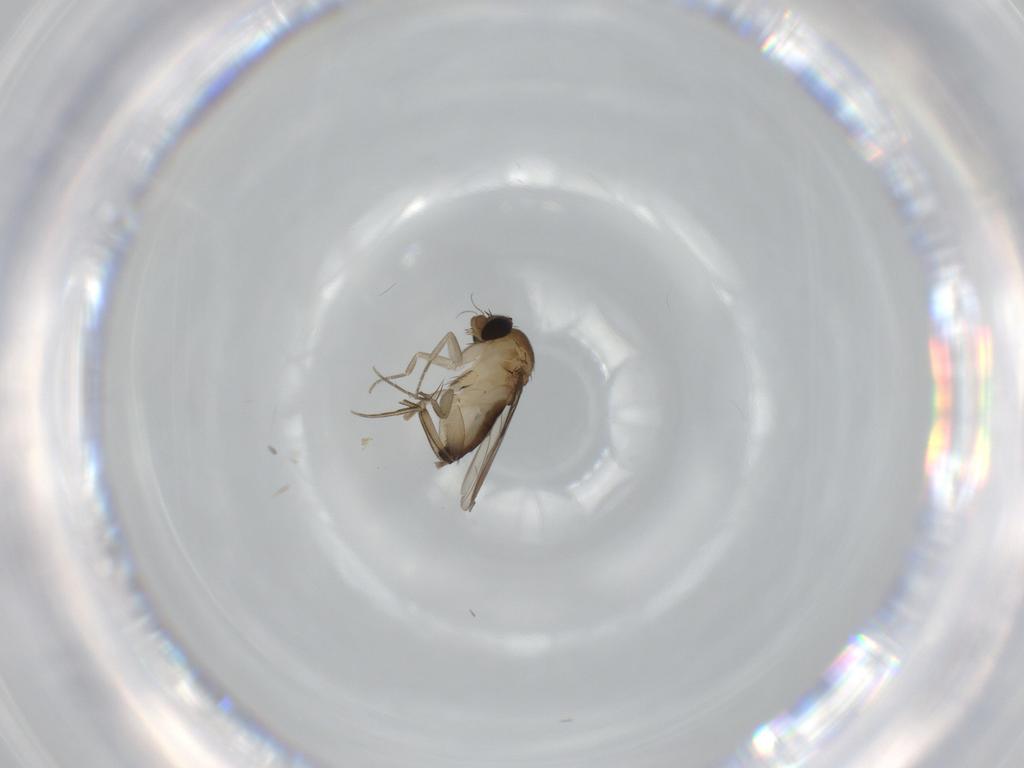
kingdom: Animalia
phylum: Arthropoda
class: Insecta
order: Diptera
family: Phoridae
